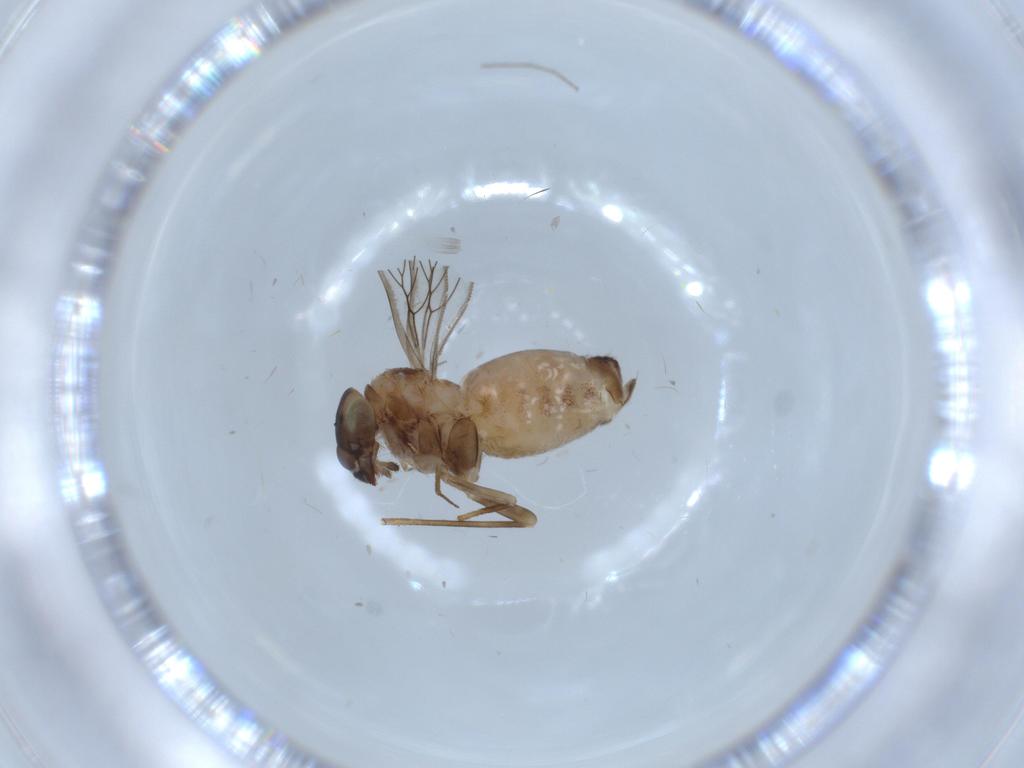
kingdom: Animalia
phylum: Arthropoda
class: Insecta
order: Psocodea
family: Lepidopsocidae
